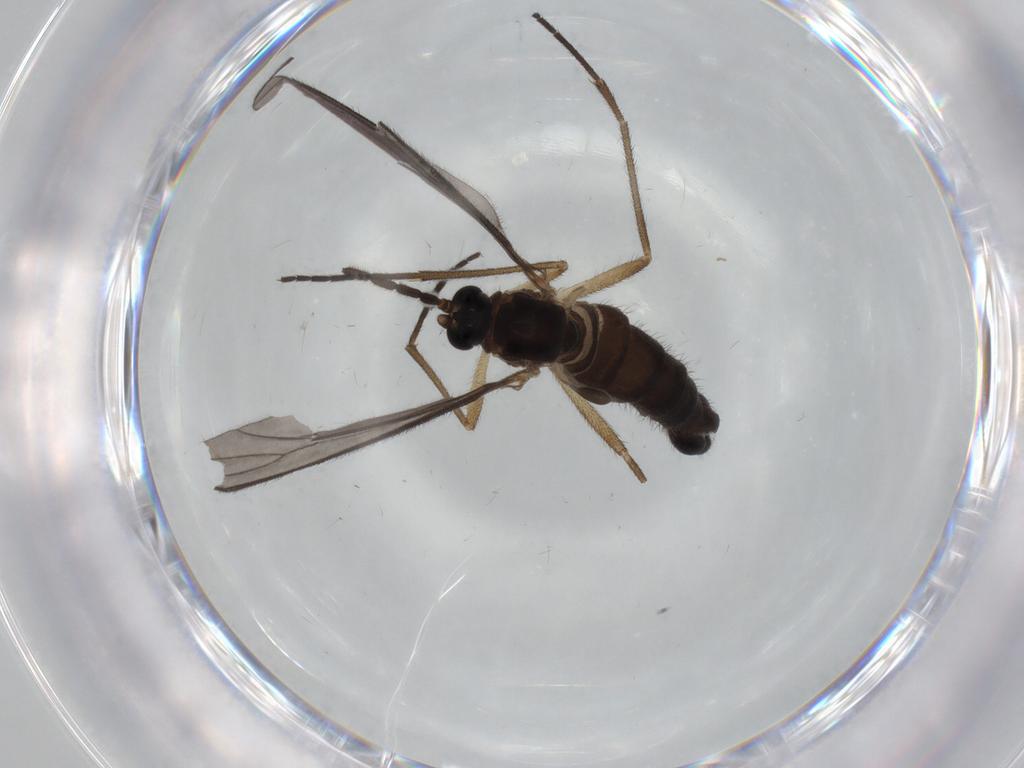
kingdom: Animalia
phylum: Arthropoda
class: Insecta
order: Diptera
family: Sciaridae
